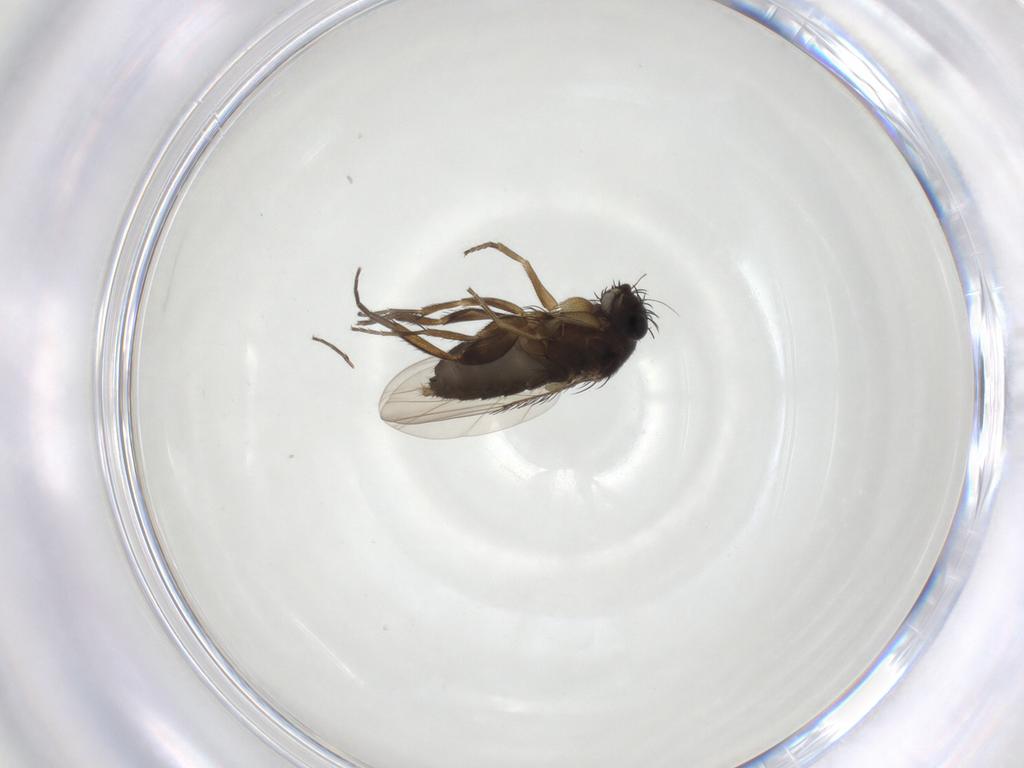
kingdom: Animalia
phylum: Arthropoda
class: Insecta
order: Diptera
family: Phoridae
